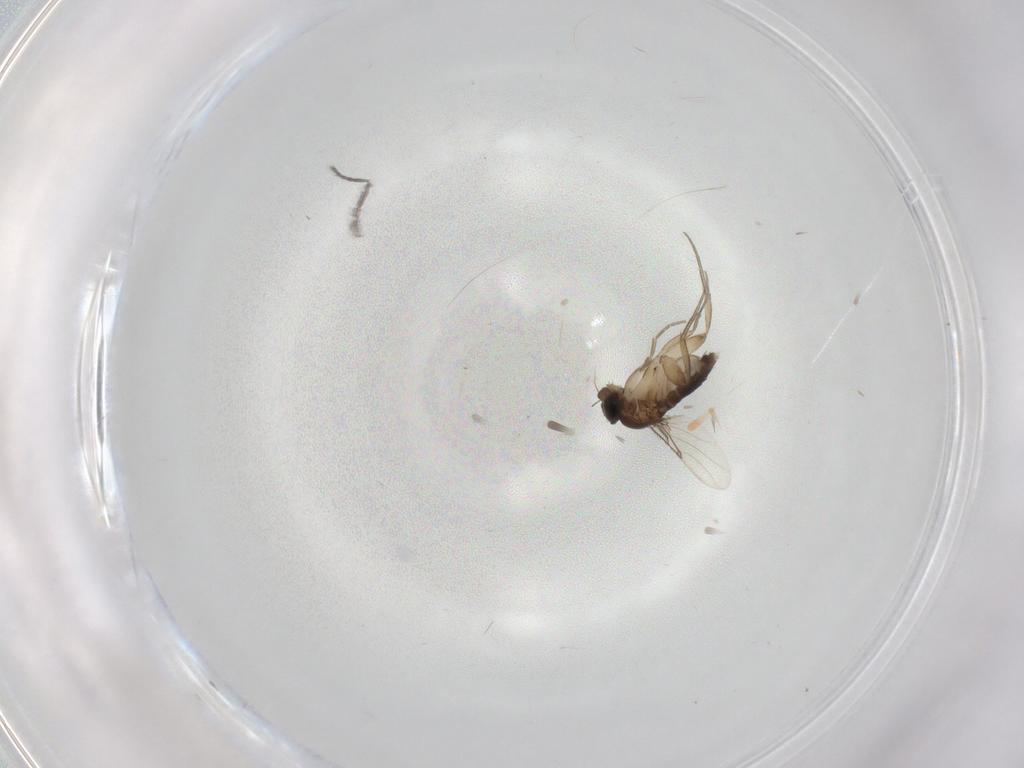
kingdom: Animalia
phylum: Arthropoda
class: Insecta
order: Diptera
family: Phoridae
